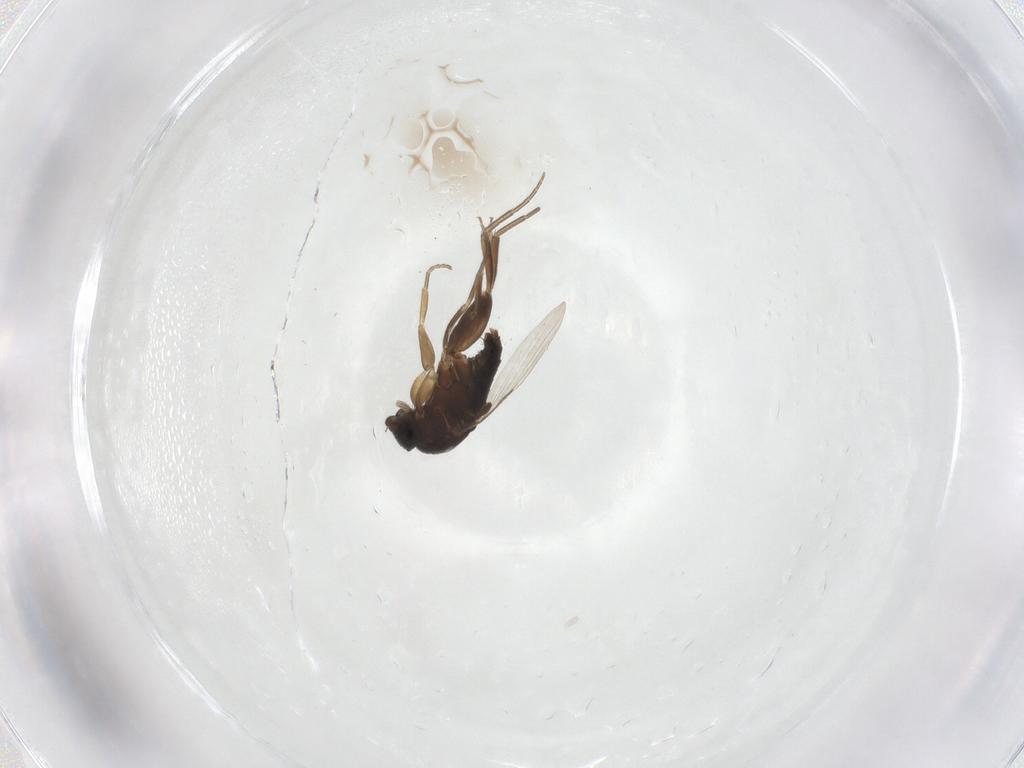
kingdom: Animalia
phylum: Arthropoda
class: Insecta
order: Diptera
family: Phoridae
